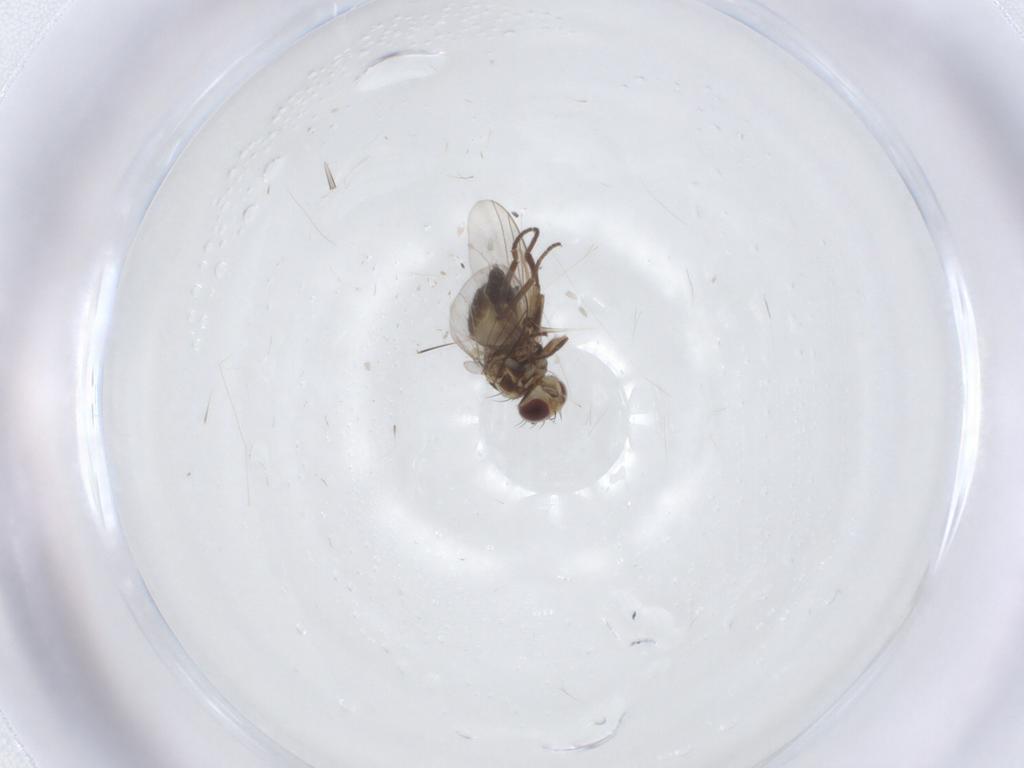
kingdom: Animalia
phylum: Arthropoda
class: Insecta
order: Diptera
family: Agromyzidae
